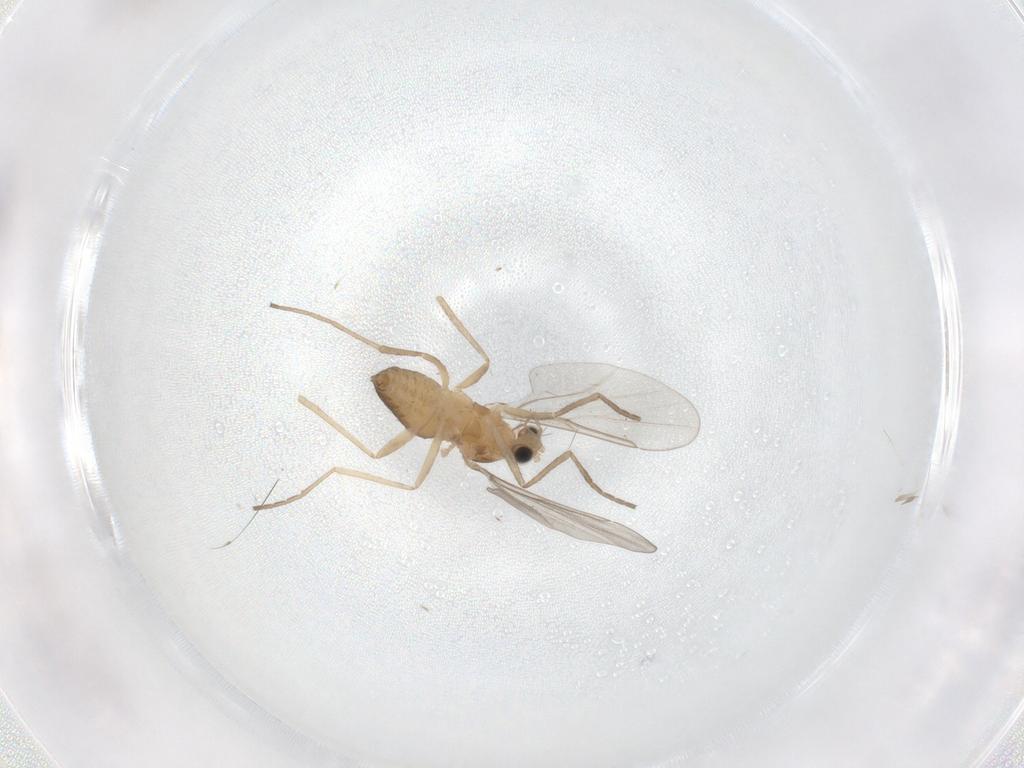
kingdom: Animalia
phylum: Arthropoda
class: Insecta
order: Diptera
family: Cecidomyiidae
